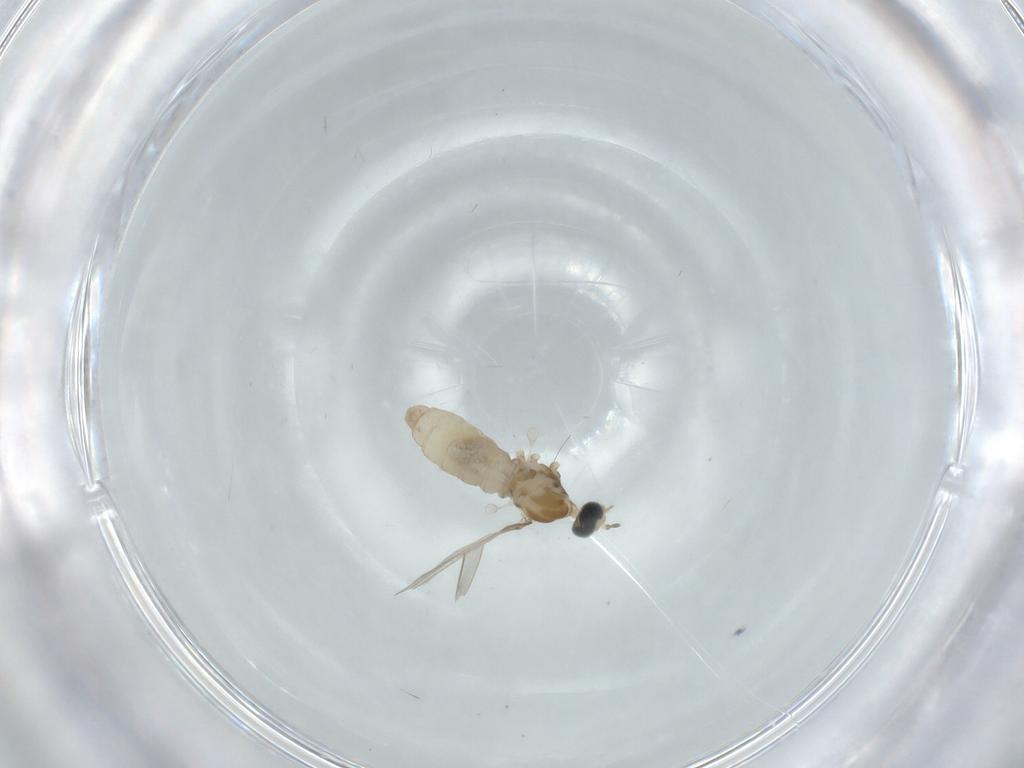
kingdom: Animalia
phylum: Arthropoda
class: Insecta
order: Diptera
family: Cecidomyiidae
